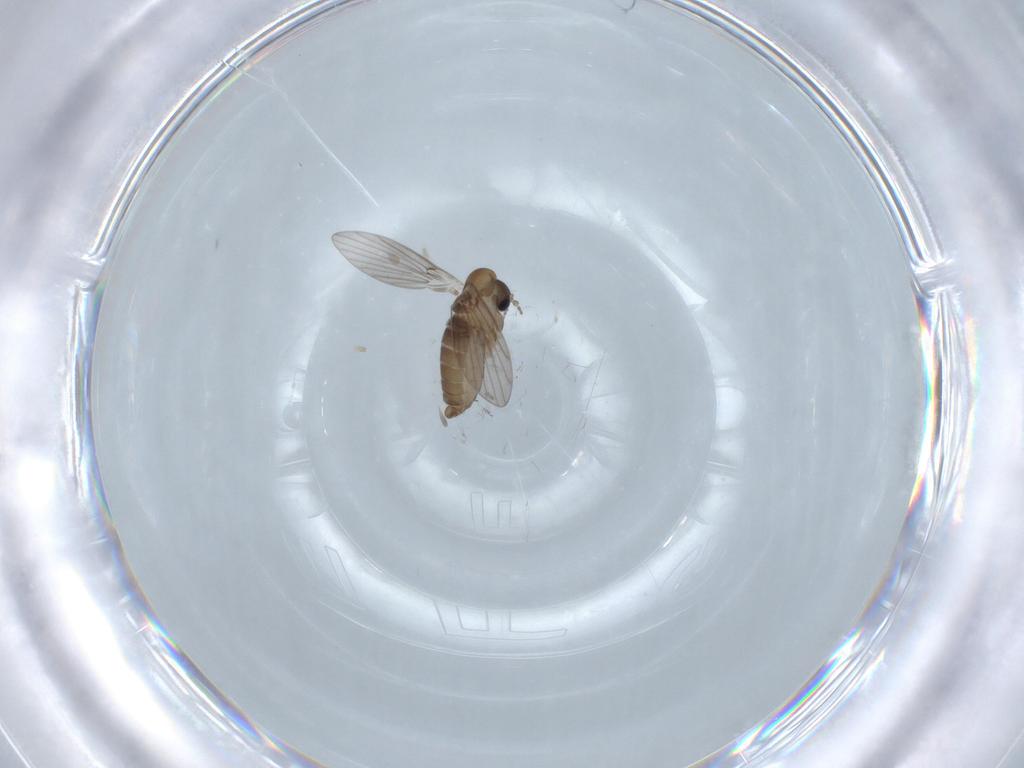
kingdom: Animalia
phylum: Arthropoda
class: Insecta
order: Diptera
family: Psychodidae
